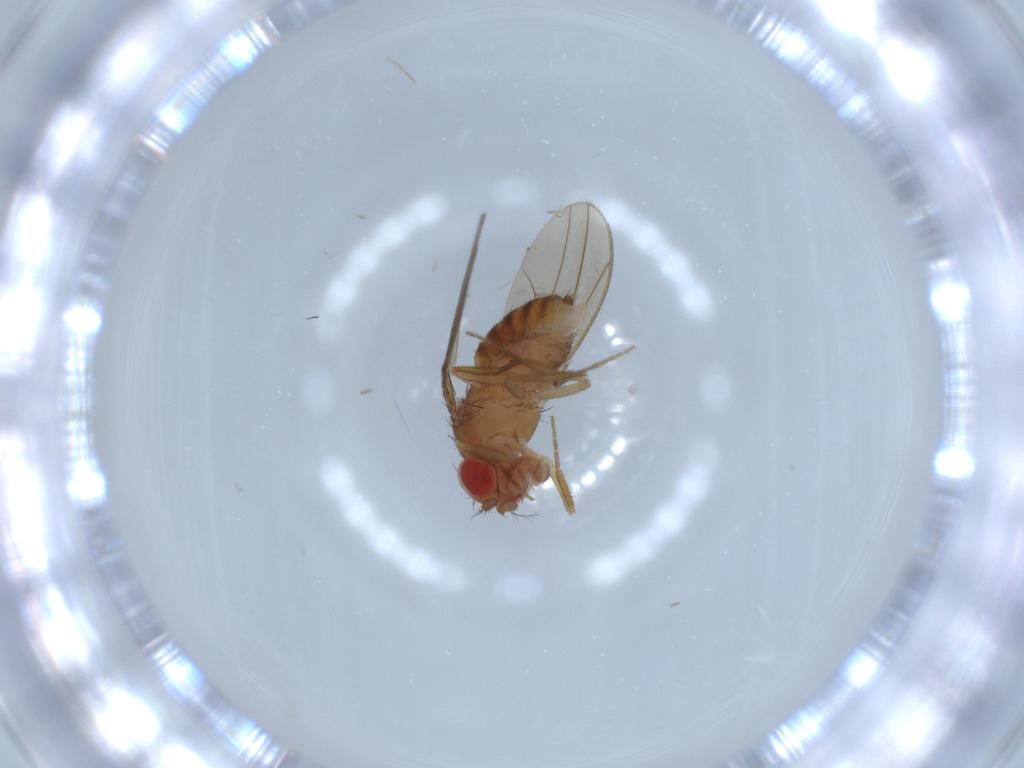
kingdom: Animalia
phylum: Arthropoda
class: Insecta
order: Diptera
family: Drosophilidae
